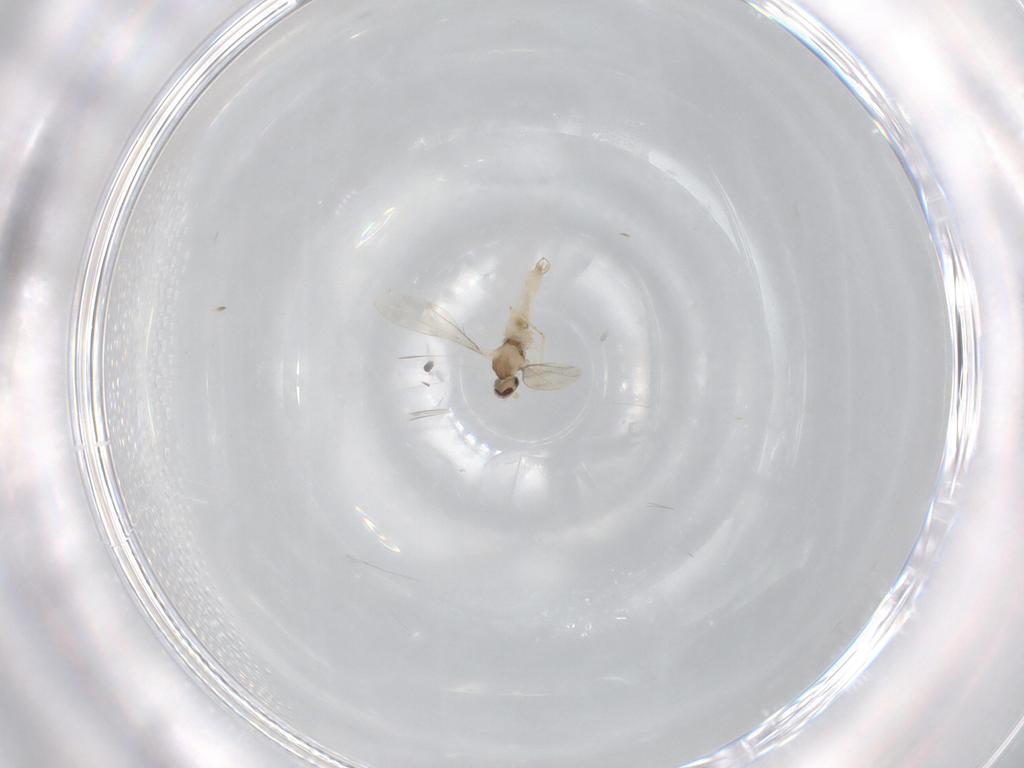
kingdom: Animalia
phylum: Arthropoda
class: Insecta
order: Diptera
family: Cecidomyiidae
